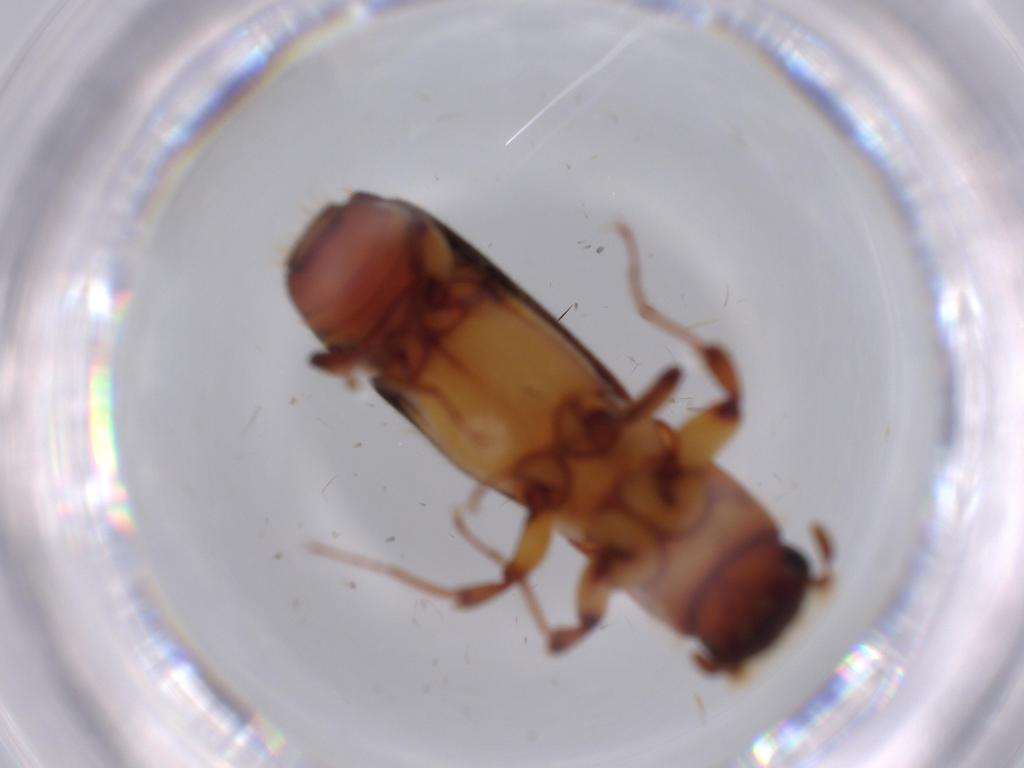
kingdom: Animalia
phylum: Arthropoda
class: Insecta
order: Coleoptera
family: Curculionidae
